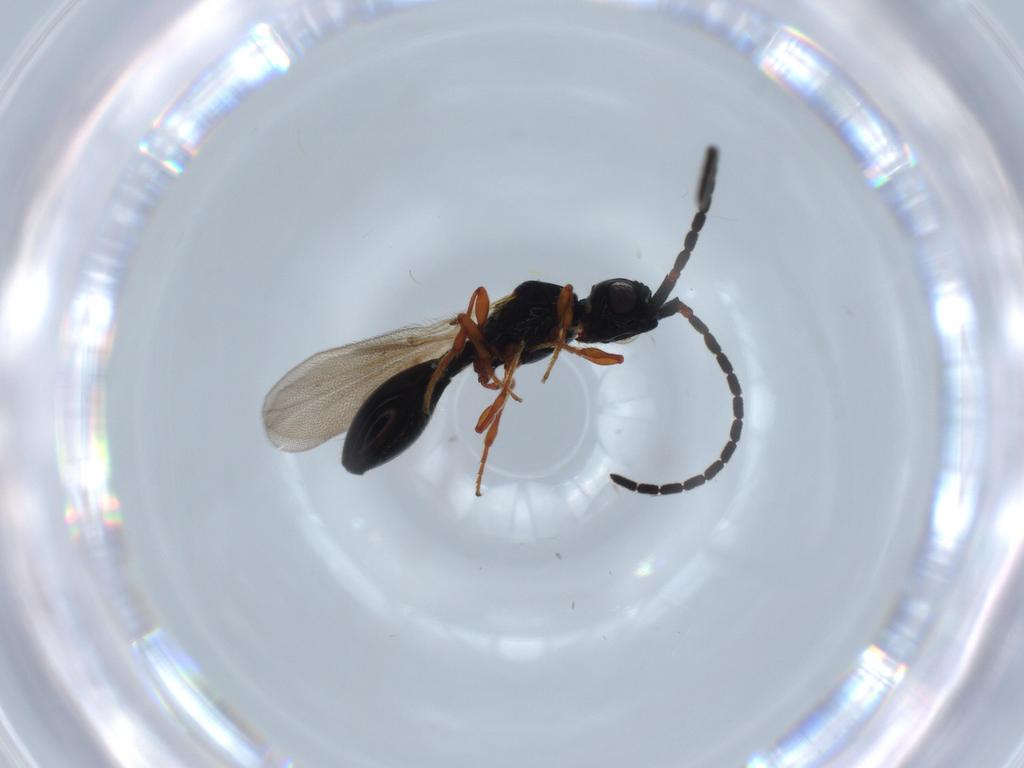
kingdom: Animalia
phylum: Arthropoda
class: Insecta
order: Hymenoptera
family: Diapriidae
